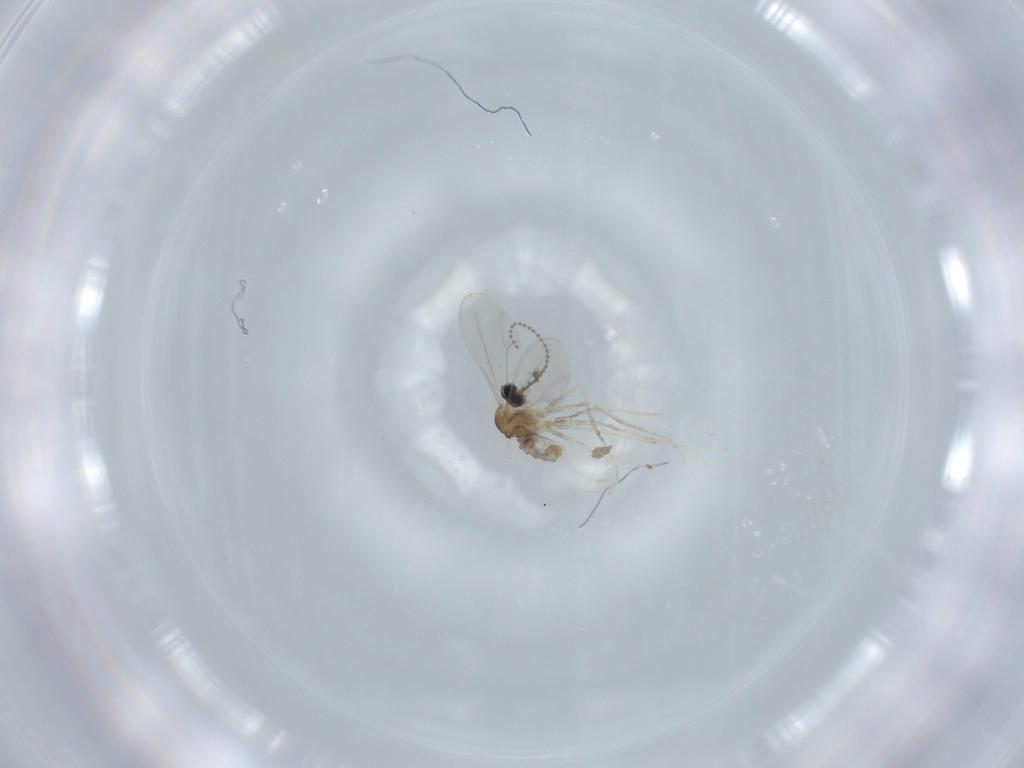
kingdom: Animalia
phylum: Arthropoda
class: Insecta
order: Diptera
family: Cecidomyiidae
